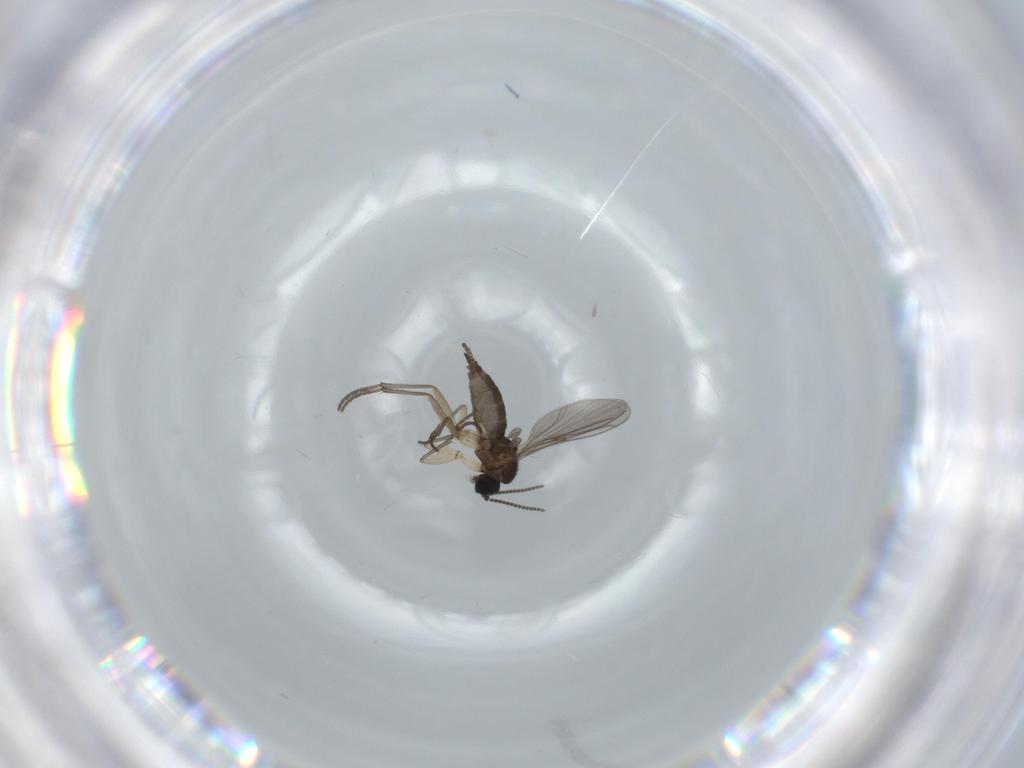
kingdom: Animalia
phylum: Arthropoda
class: Insecta
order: Diptera
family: Sciaridae
